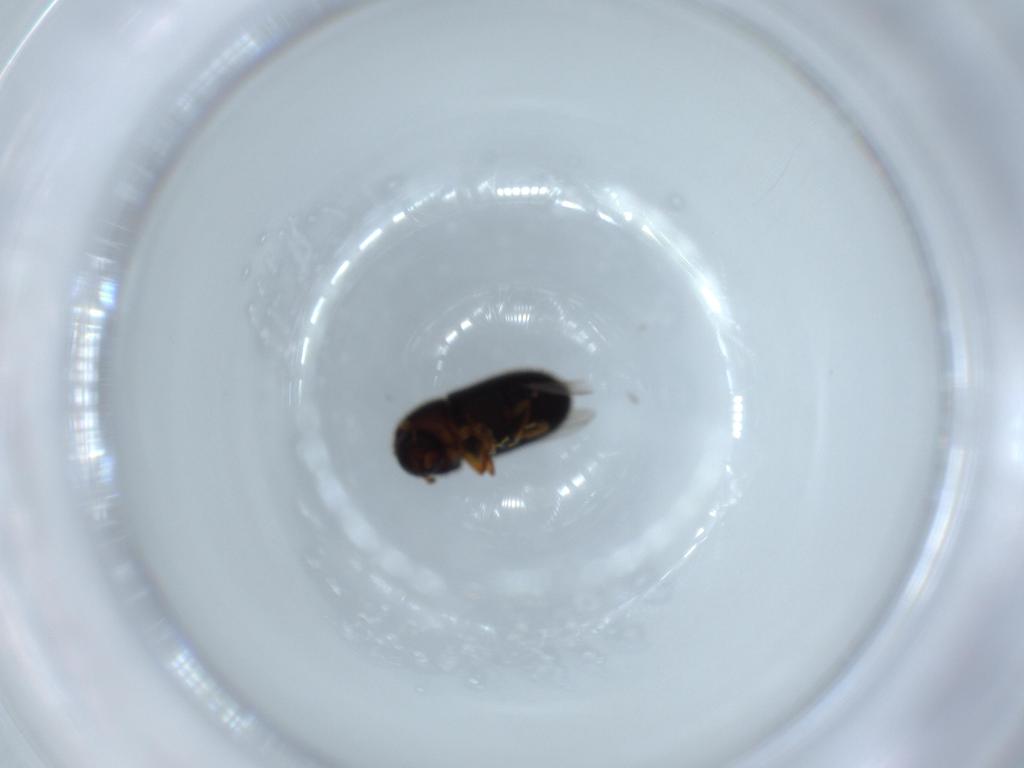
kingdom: Animalia
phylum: Arthropoda
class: Insecta
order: Coleoptera
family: Curculionidae
